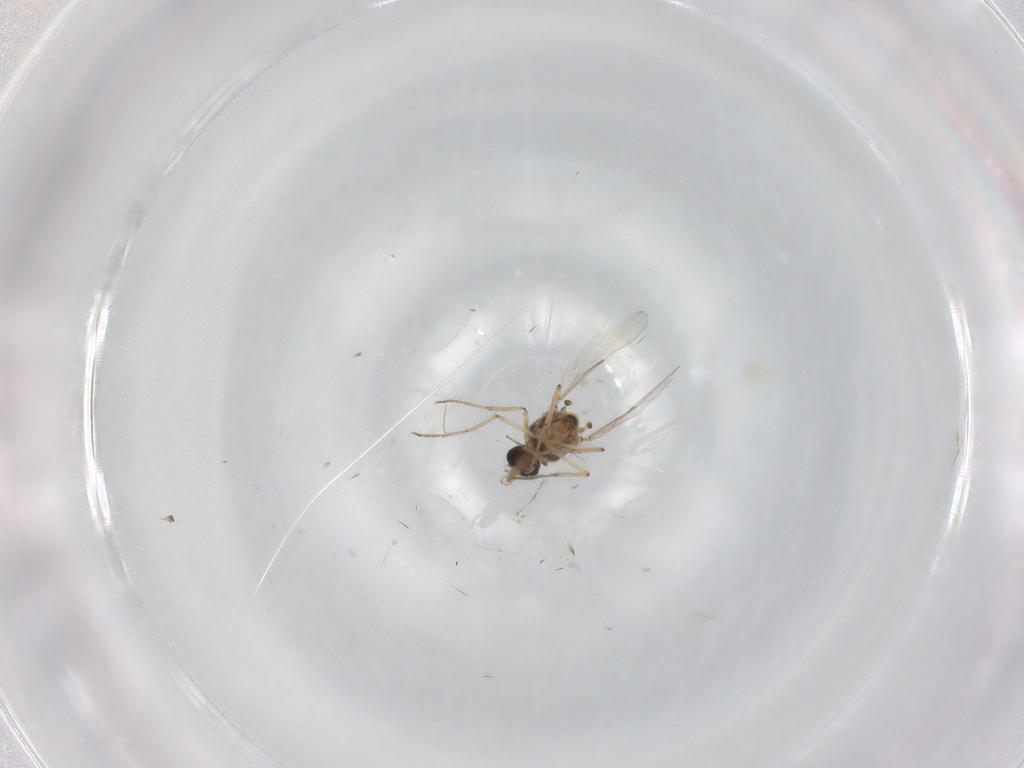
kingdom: Animalia
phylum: Arthropoda
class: Insecta
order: Diptera
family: Ceratopogonidae
